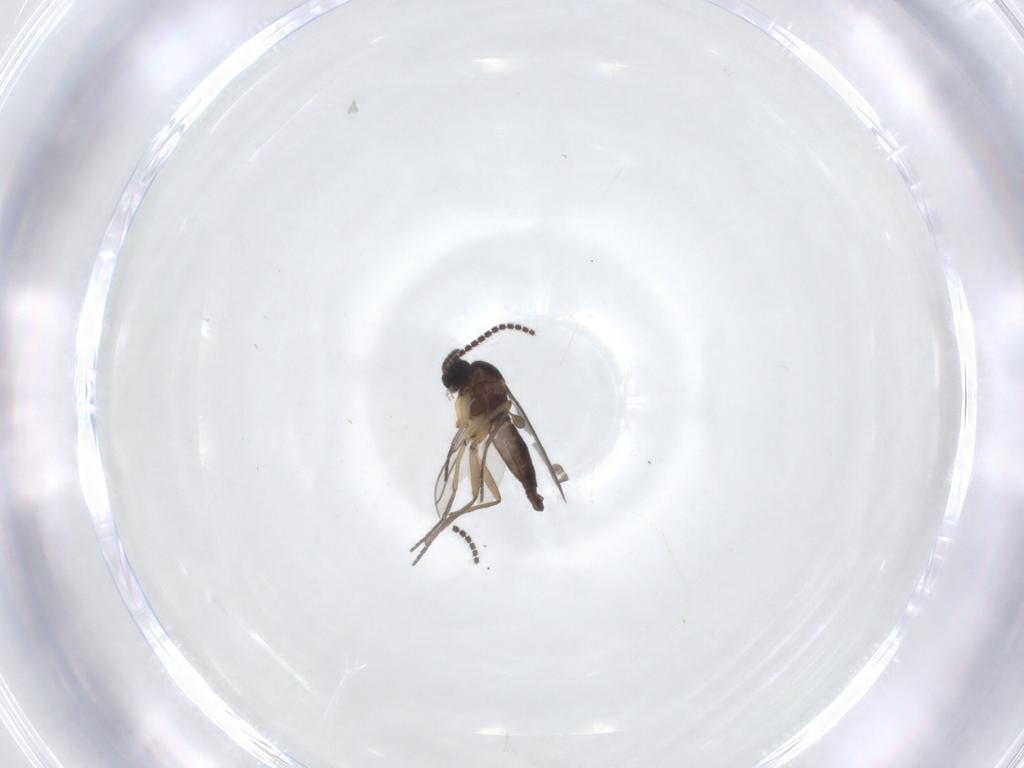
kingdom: Animalia
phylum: Arthropoda
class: Insecta
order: Diptera
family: Sciaridae
